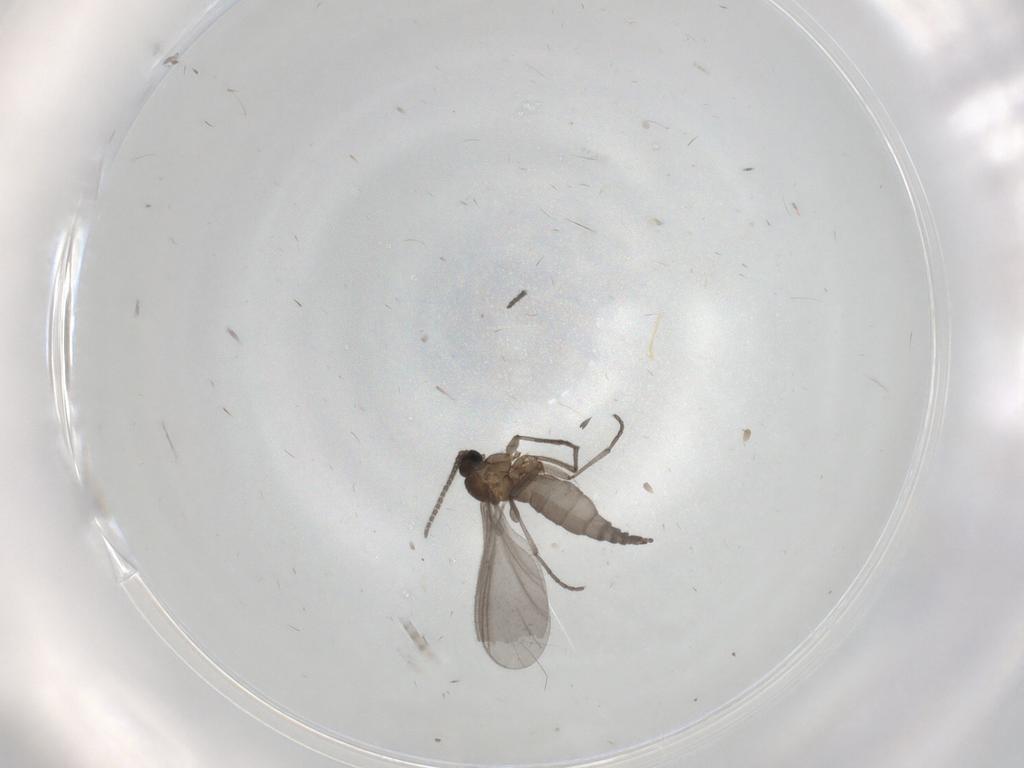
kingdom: Animalia
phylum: Arthropoda
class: Insecta
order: Diptera
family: Sciaridae
